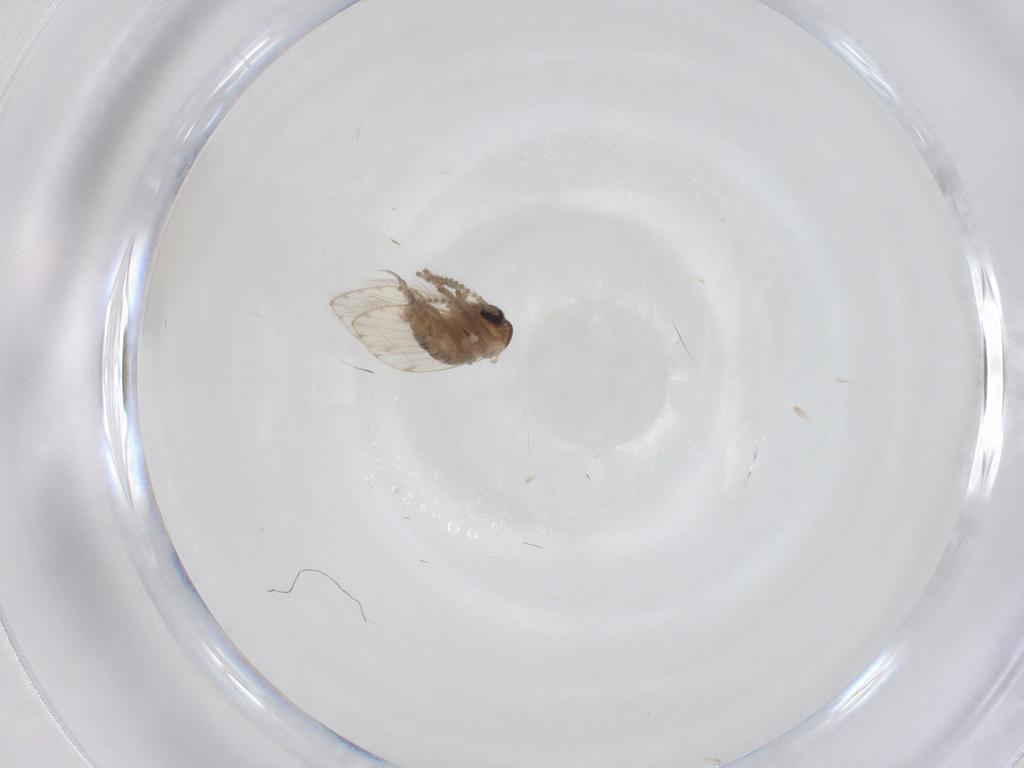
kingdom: Animalia
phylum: Arthropoda
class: Insecta
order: Diptera
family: Psychodidae
